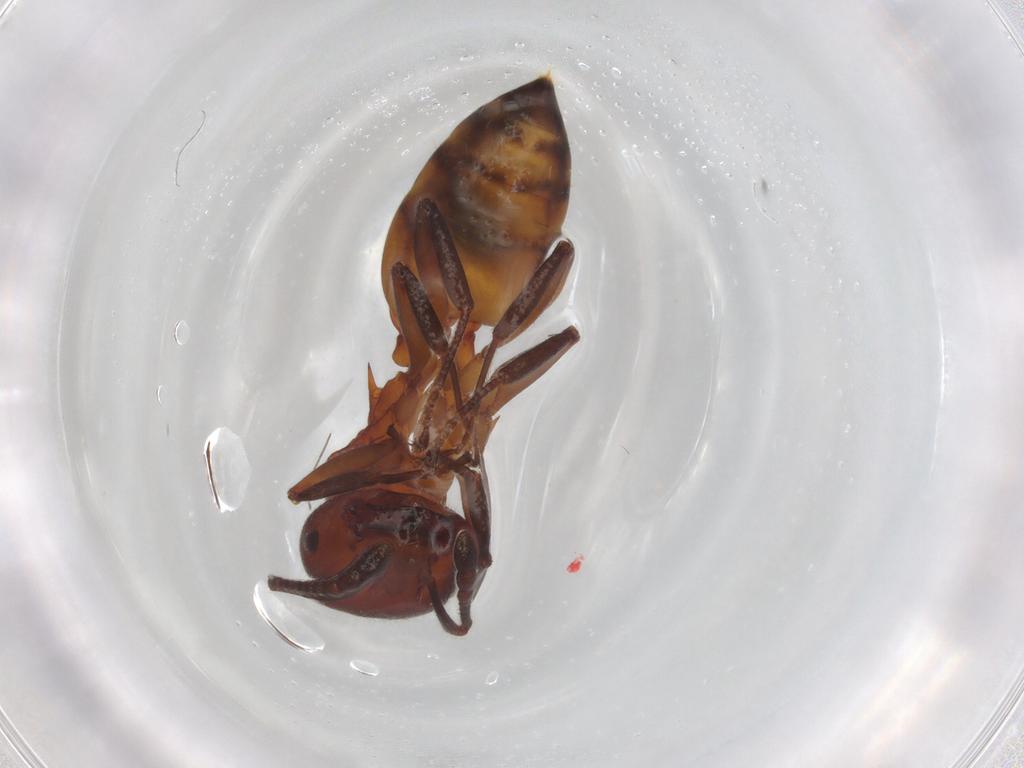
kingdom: Animalia
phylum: Arthropoda
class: Insecta
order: Hymenoptera
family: Formicidae
